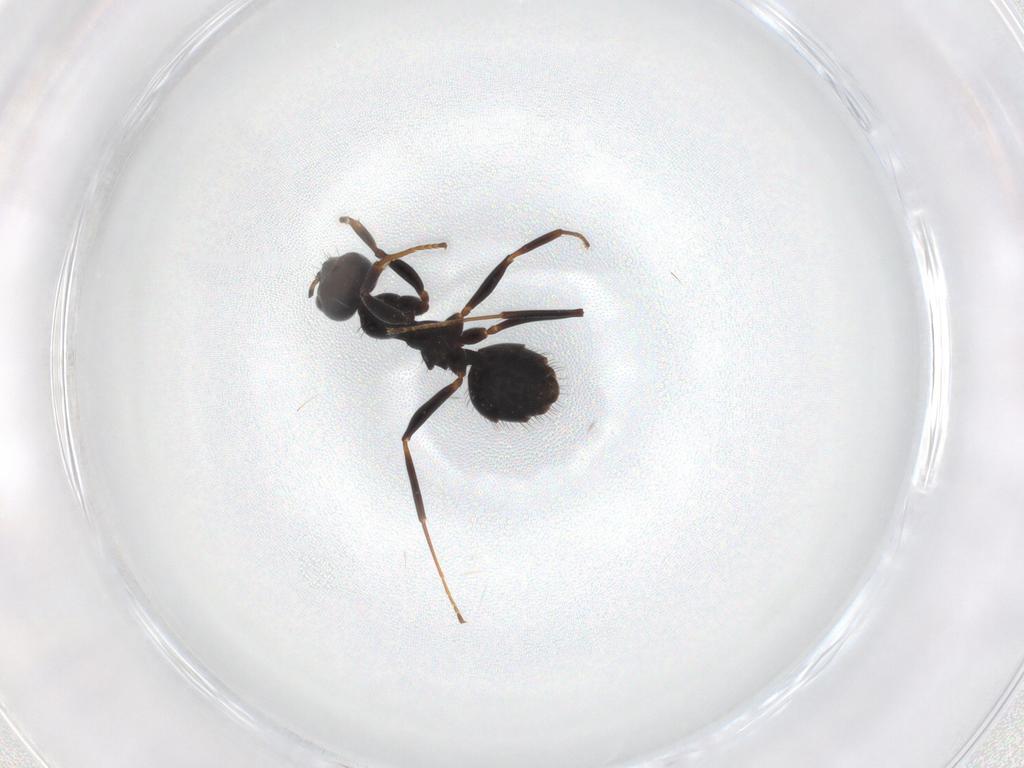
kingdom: Animalia
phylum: Arthropoda
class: Insecta
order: Hymenoptera
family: Formicidae
